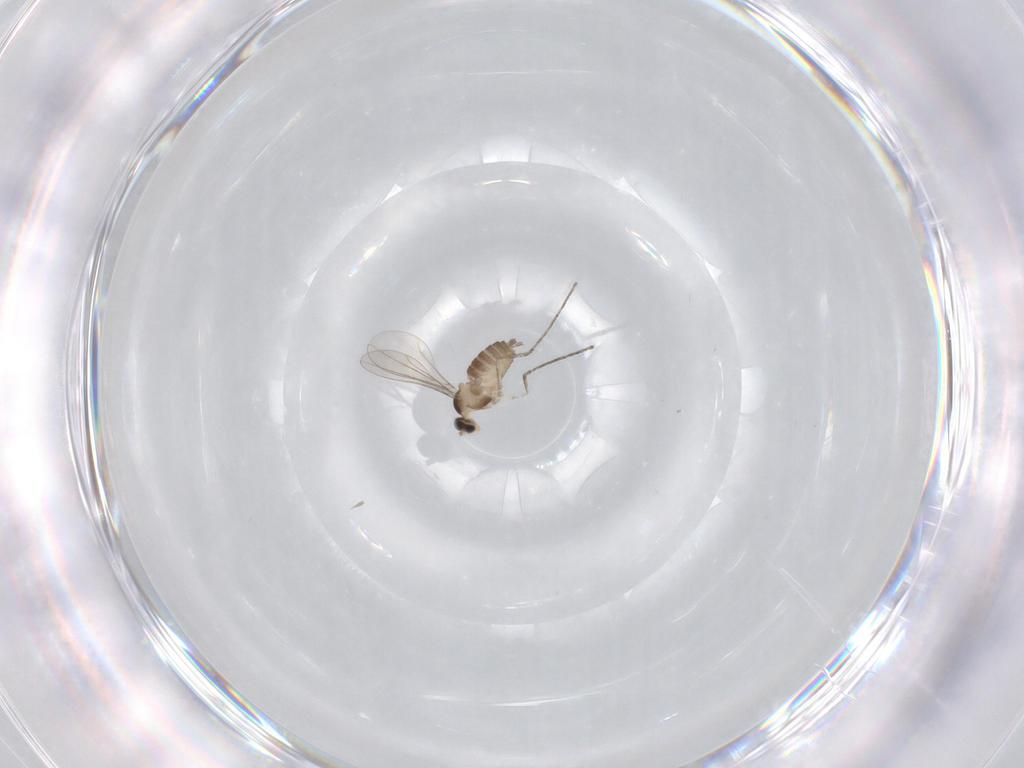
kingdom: Animalia
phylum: Arthropoda
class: Insecta
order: Diptera
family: Cecidomyiidae
